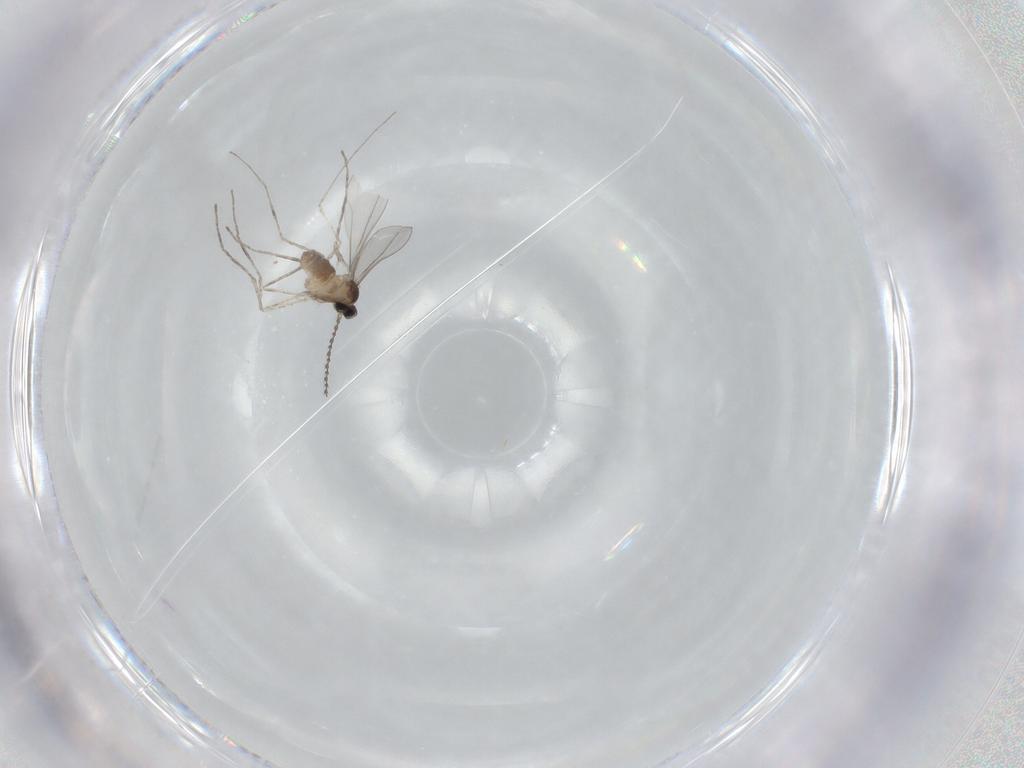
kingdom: Animalia
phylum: Arthropoda
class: Insecta
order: Diptera
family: Cecidomyiidae
